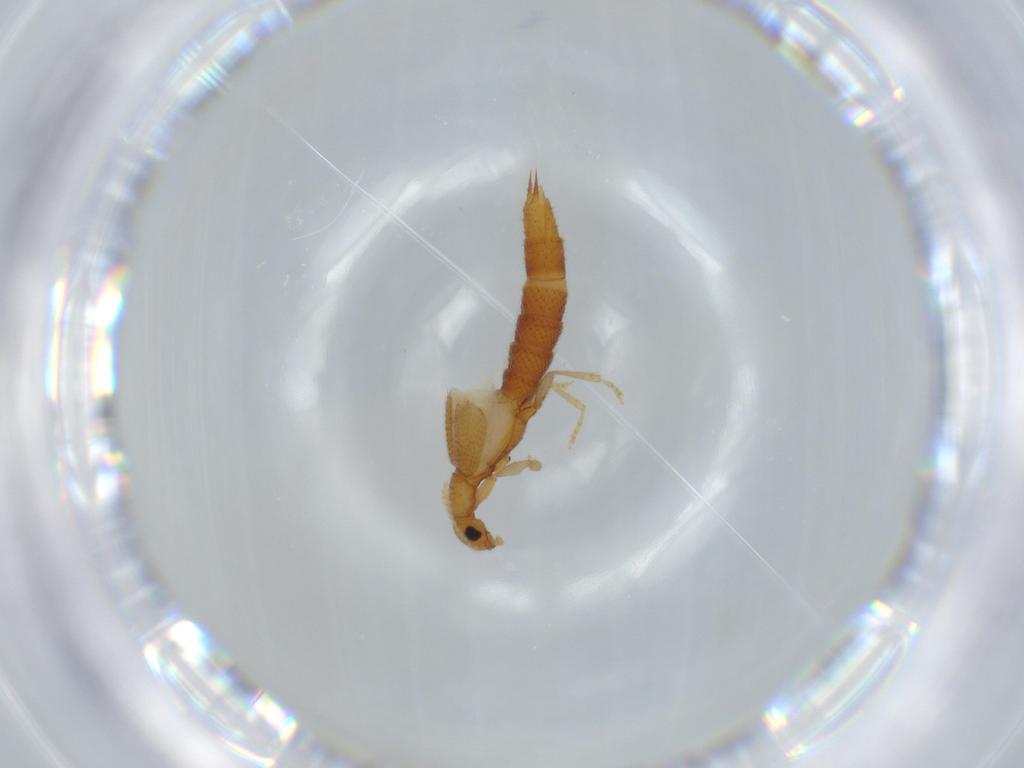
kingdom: Animalia
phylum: Arthropoda
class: Insecta
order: Coleoptera
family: Staphylinidae
